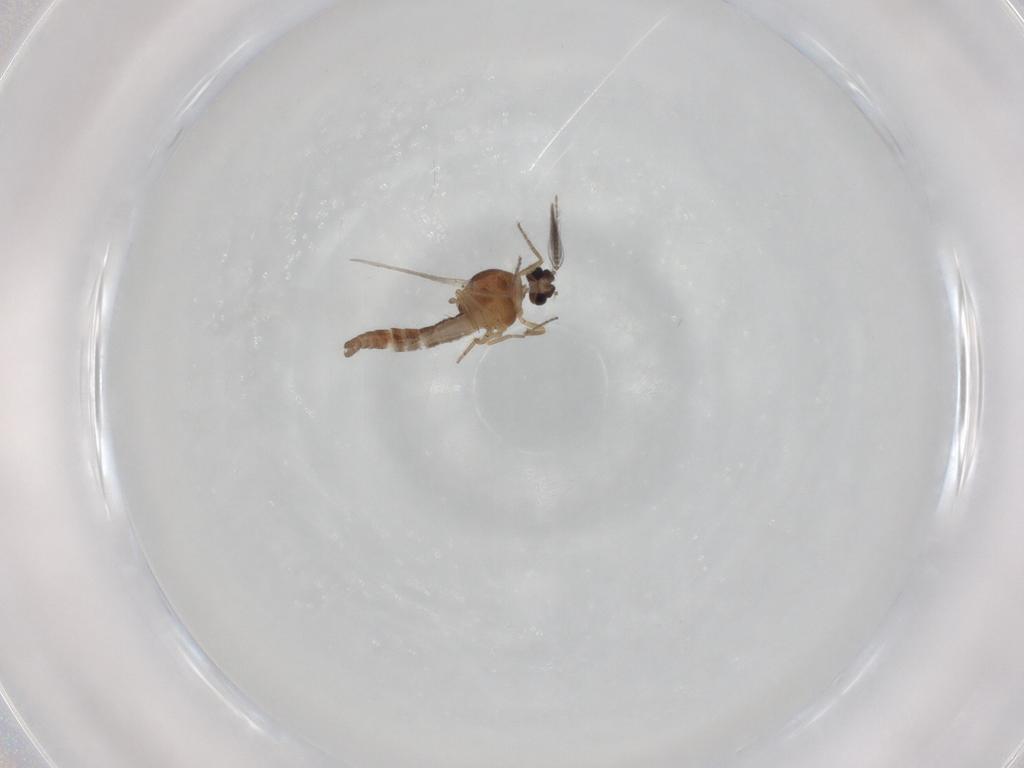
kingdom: Animalia
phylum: Arthropoda
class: Insecta
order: Diptera
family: Ceratopogonidae
